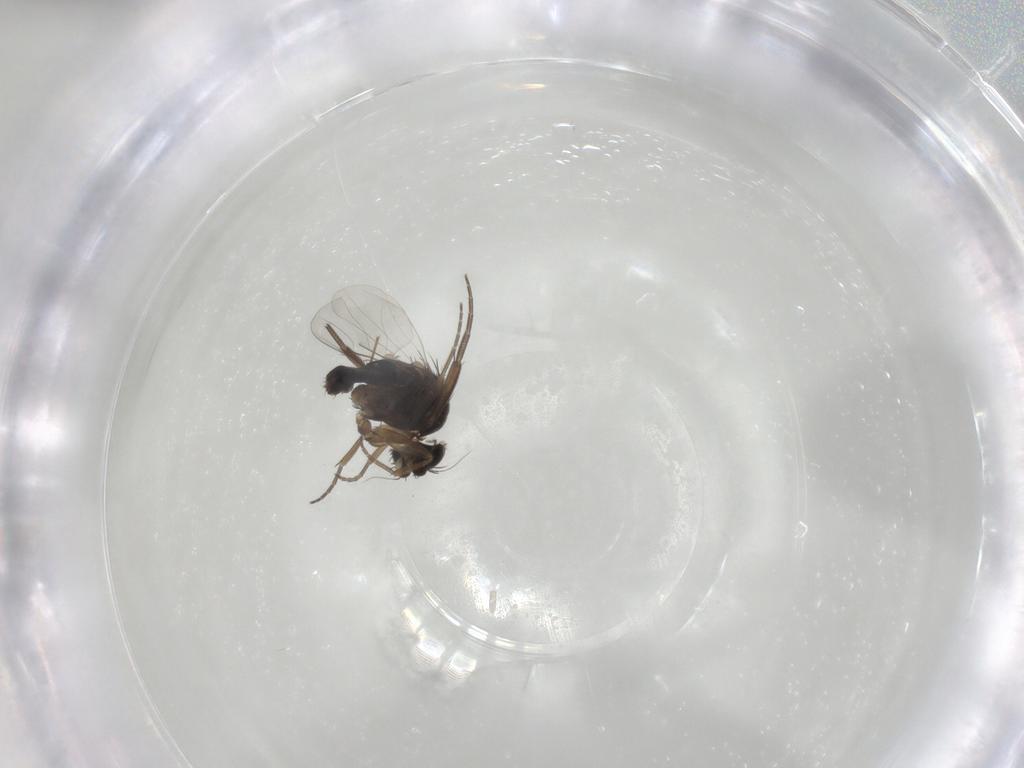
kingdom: Animalia
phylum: Arthropoda
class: Insecta
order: Diptera
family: Phoridae
